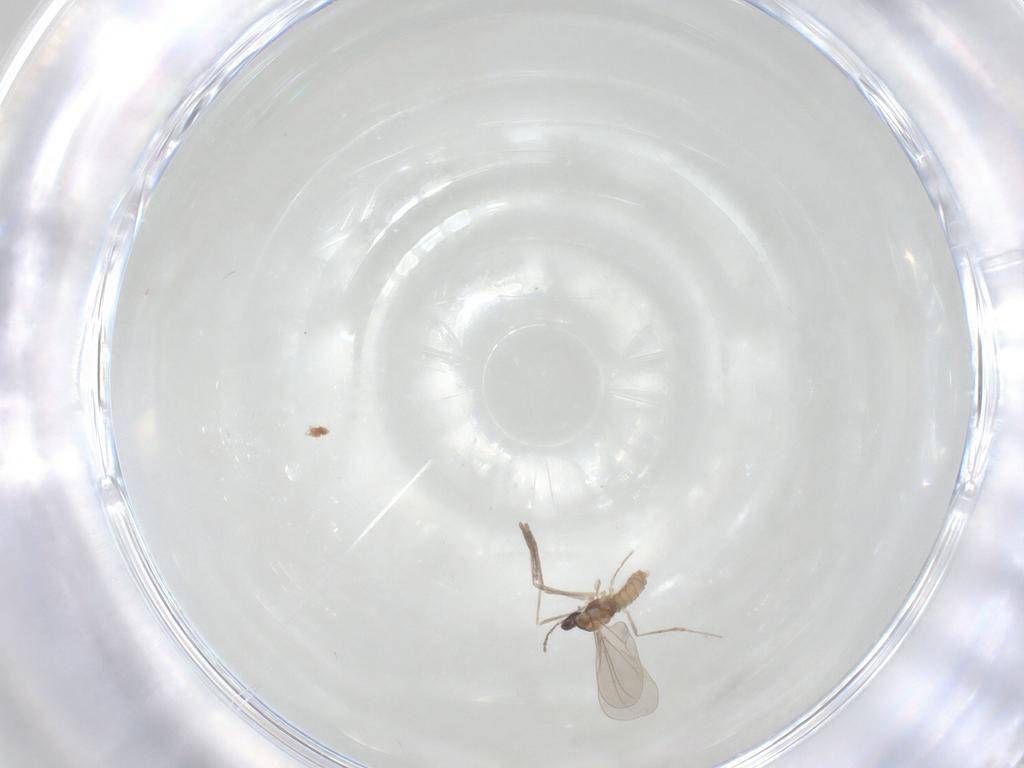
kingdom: Animalia
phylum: Arthropoda
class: Insecta
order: Diptera
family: Cecidomyiidae
